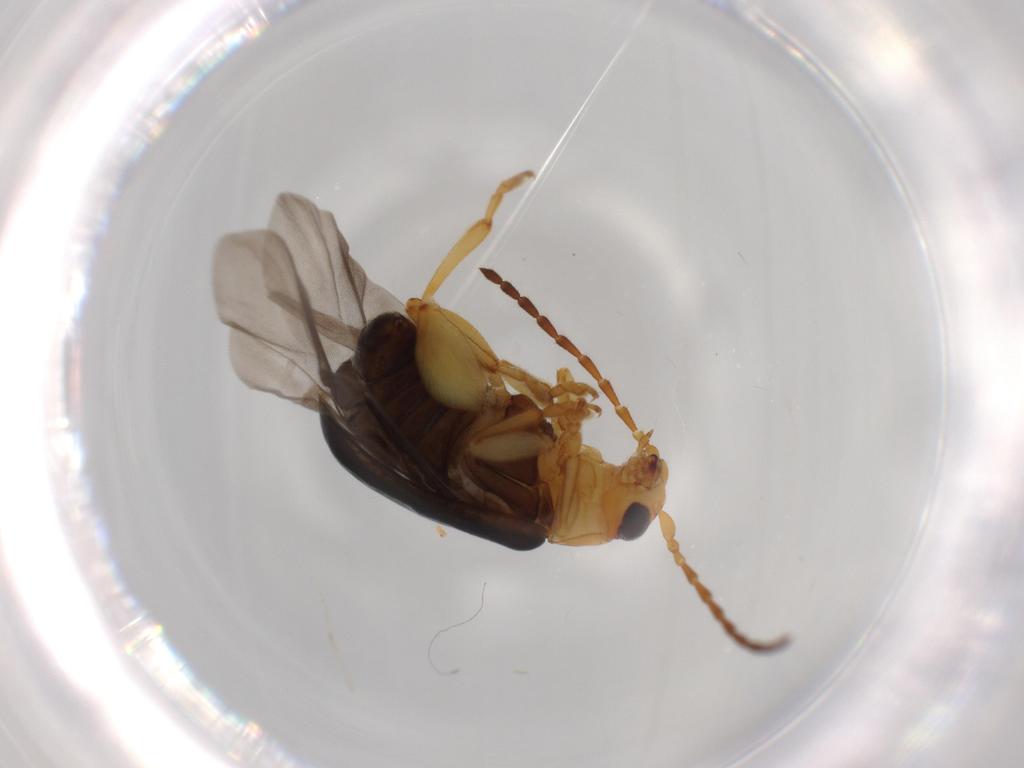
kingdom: Animalia
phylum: Arthropoda
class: Insecta
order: Coleoptera
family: Chrysomelidae
